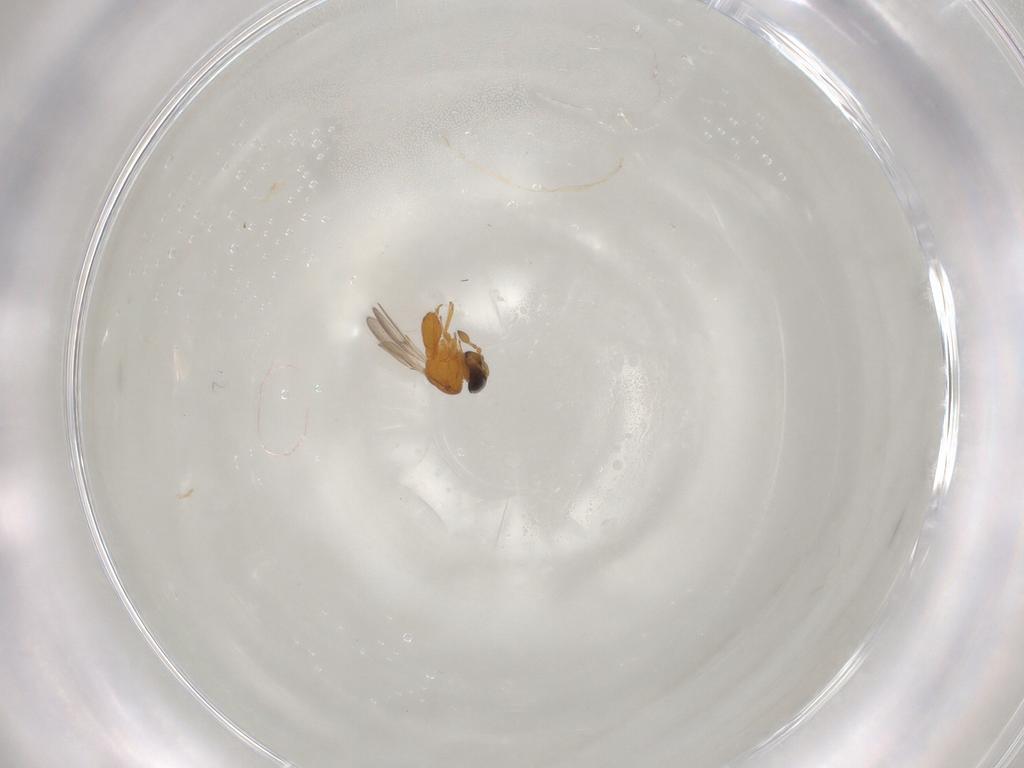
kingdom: Animalia
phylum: Arthropoda
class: Insecta
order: Hymenoptera
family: Scelionidae
